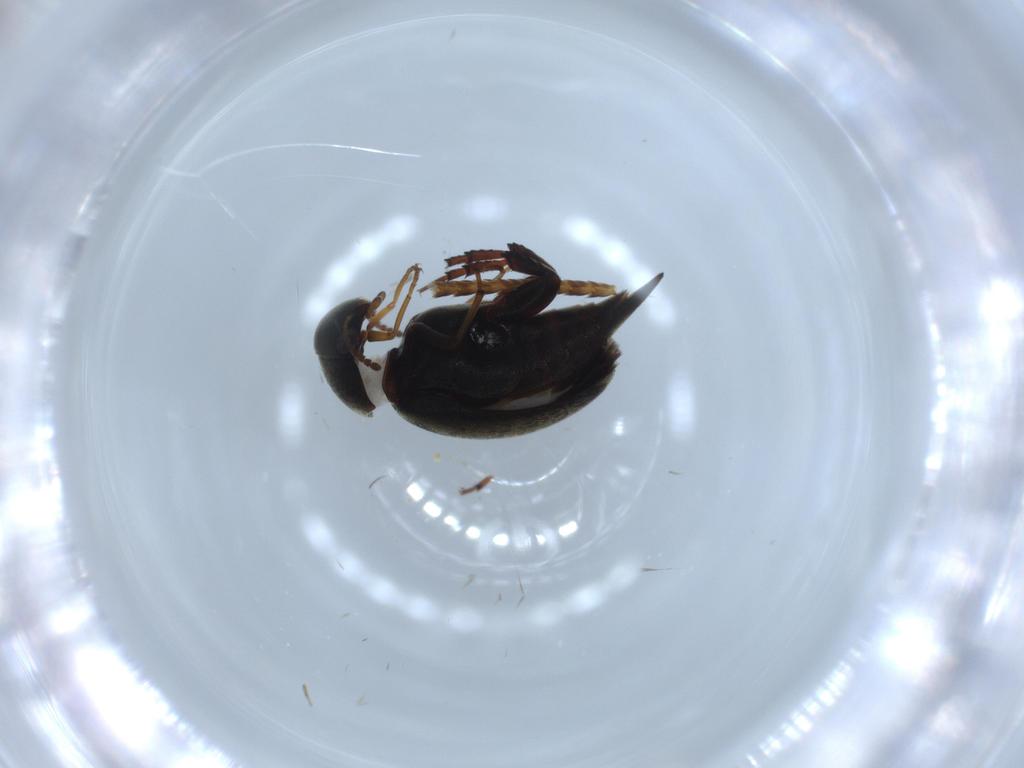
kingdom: Animalia
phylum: Arthropoda
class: Insecta
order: Coleoptera
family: Mordellidae
